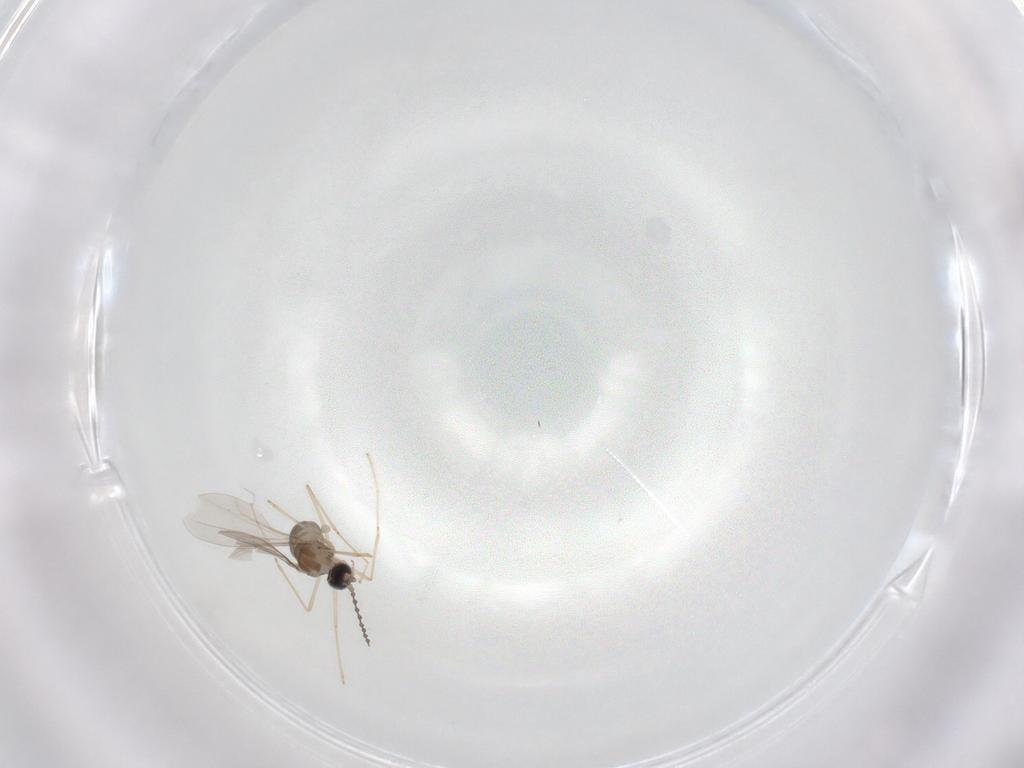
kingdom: Animalia
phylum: Arthropoda
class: Insecta
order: Diptera
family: Cecidomyiidae
